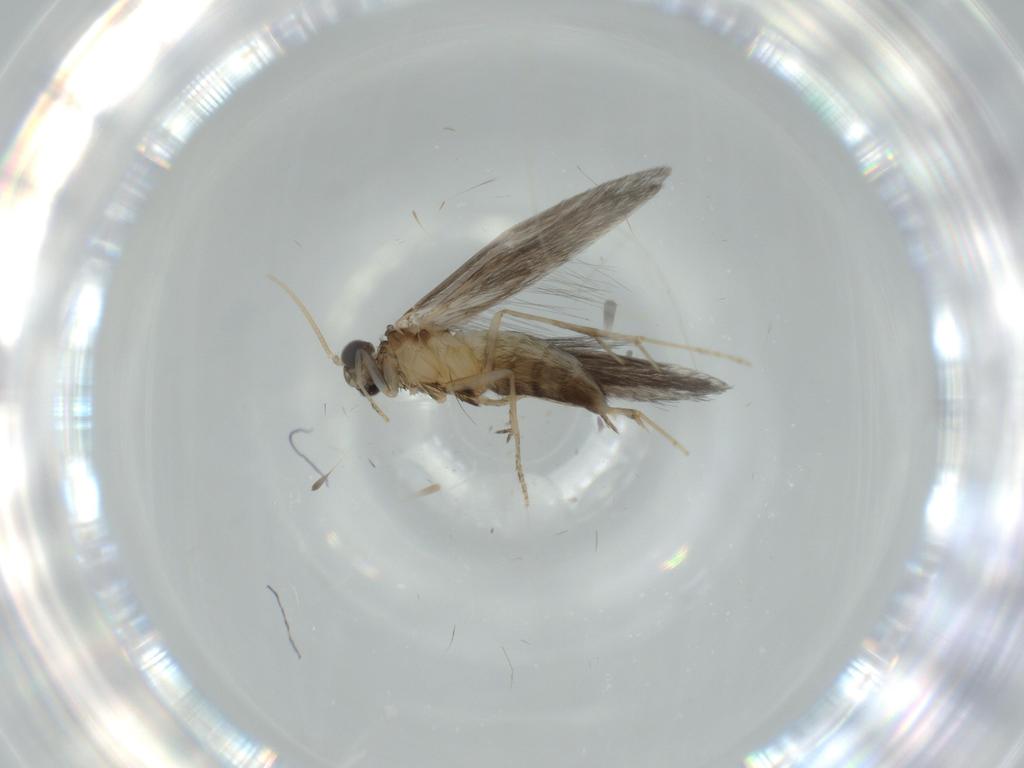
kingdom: Animalia
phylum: Arthropoda
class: Insecta
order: Trichoptera
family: Hydroptilidae
